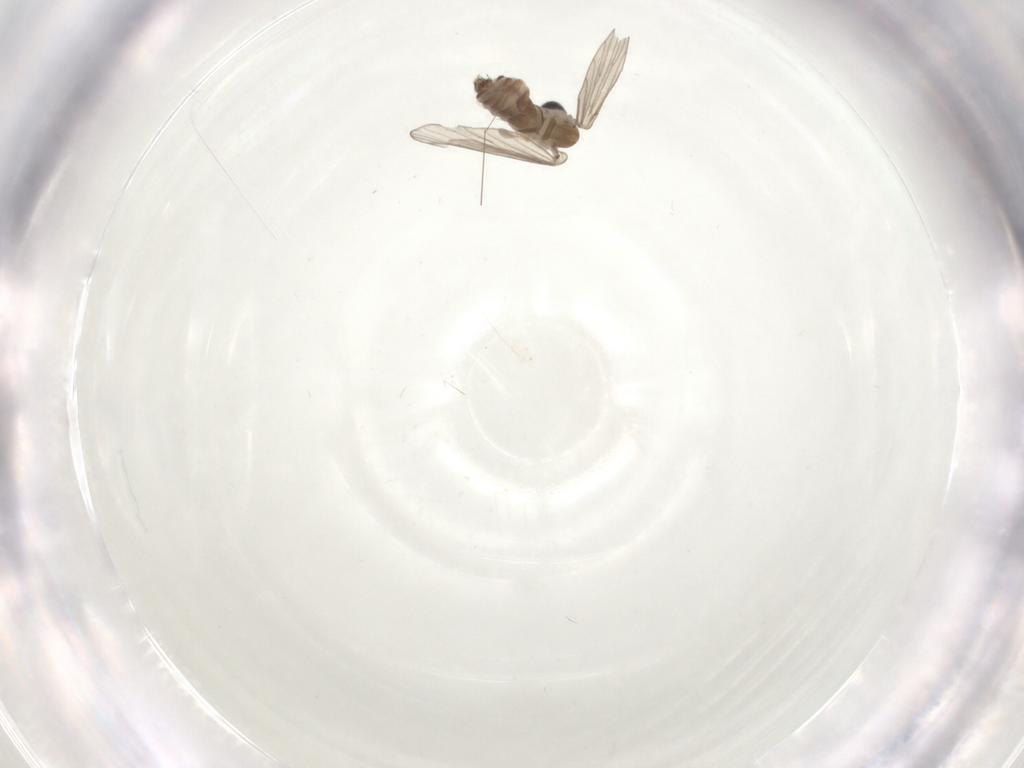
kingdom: Animalia
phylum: Arthropoda
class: Insecta
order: Diptera
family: Psychodidae
